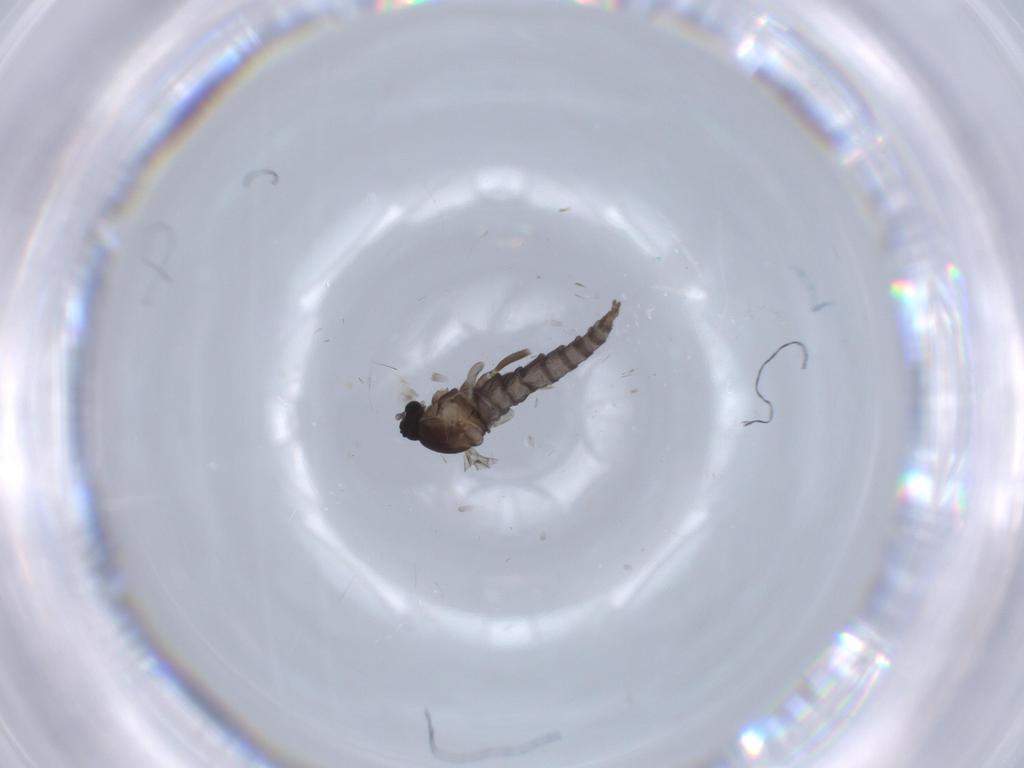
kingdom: Animalia
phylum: Arthropoda
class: Insecta
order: Diptera
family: Cecidomyiidae
